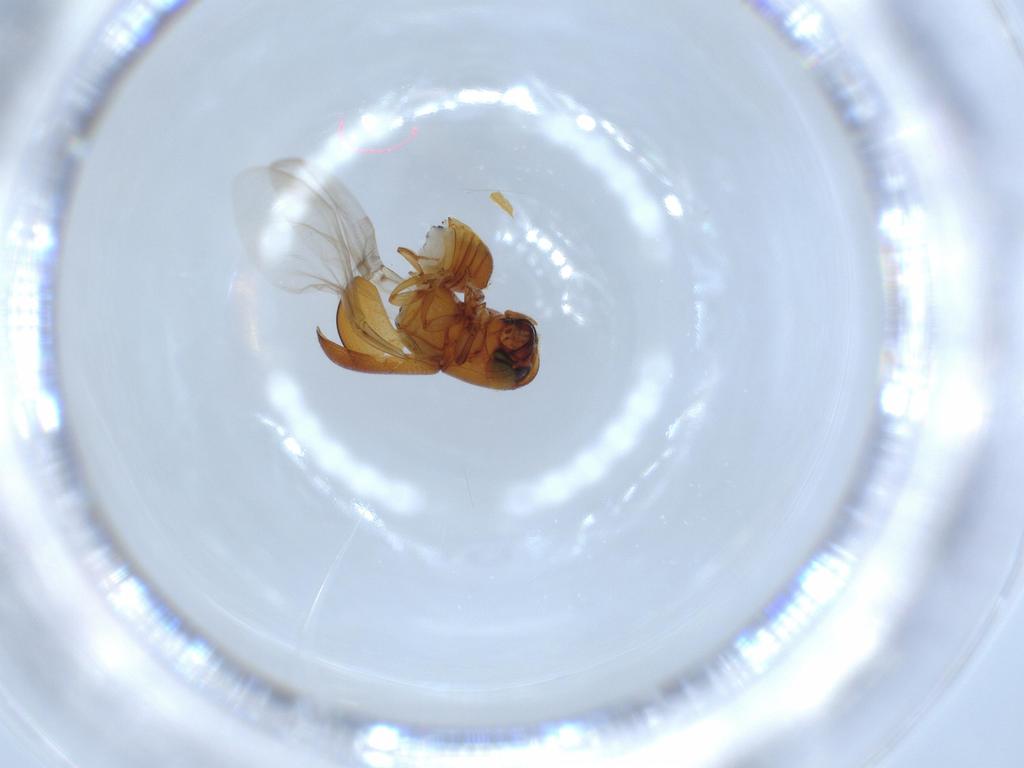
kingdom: Animalia
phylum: Arthropoda
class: Insecta
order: Coleoptera
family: Curculionidae
